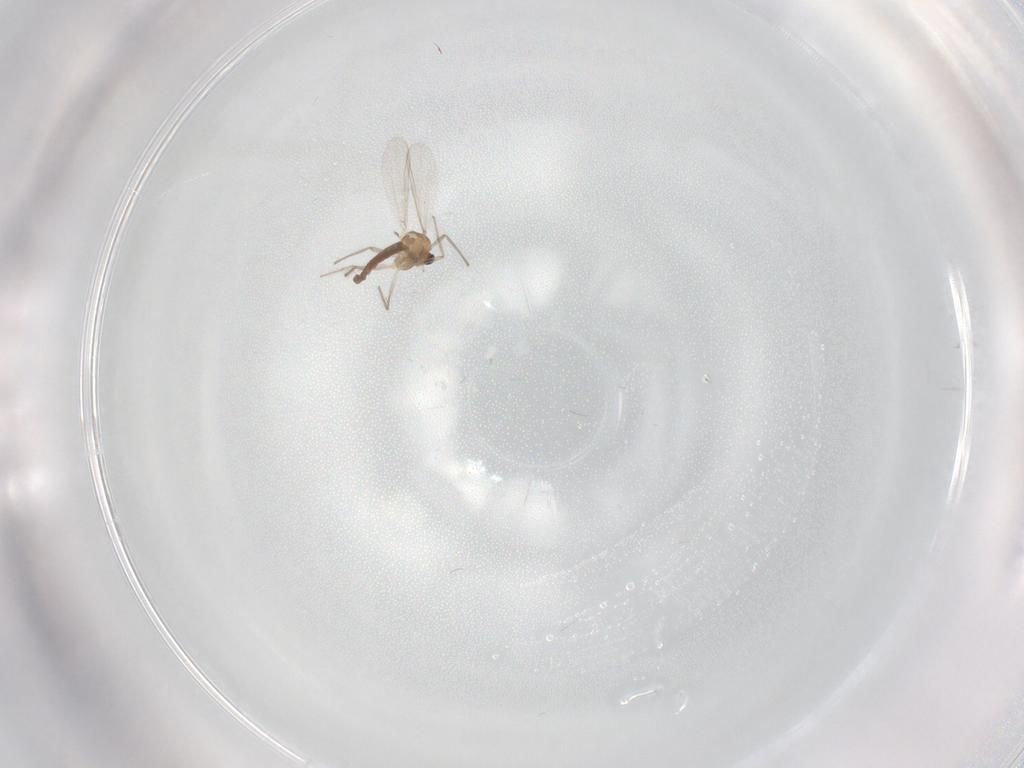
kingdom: Animalia
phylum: Arthropoda
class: Insecta
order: Diptera
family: Chironomidae
